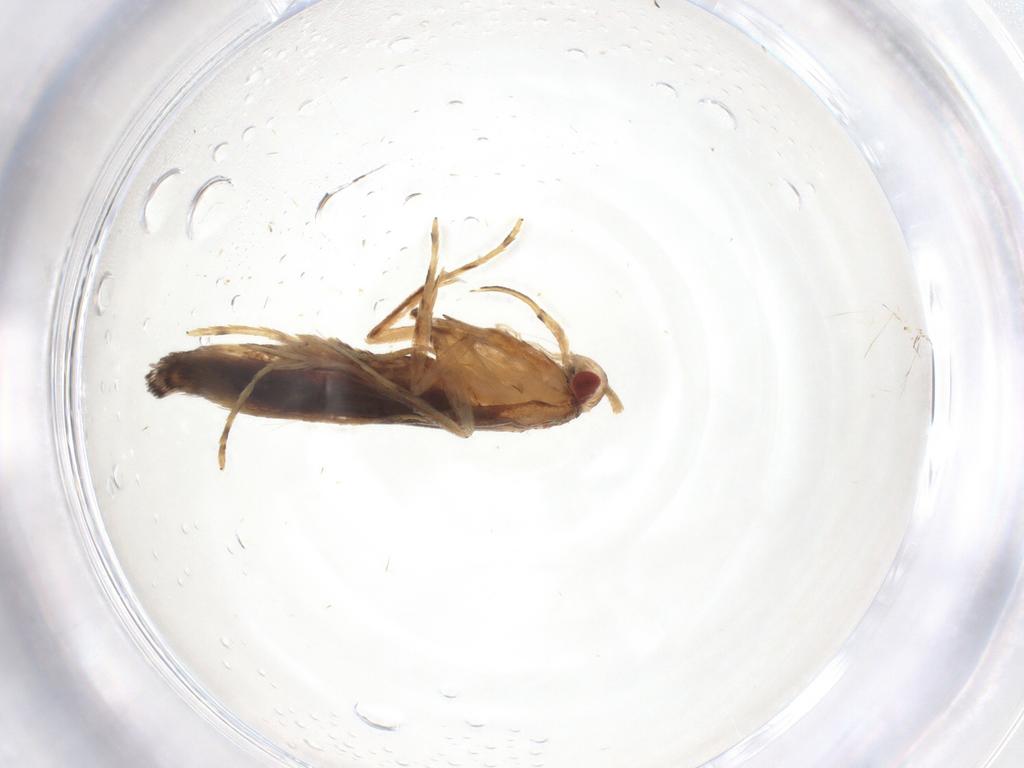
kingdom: Animalia
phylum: Arthropoda
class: Insecta
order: Lepidoptera
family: Cosmopterigidae
